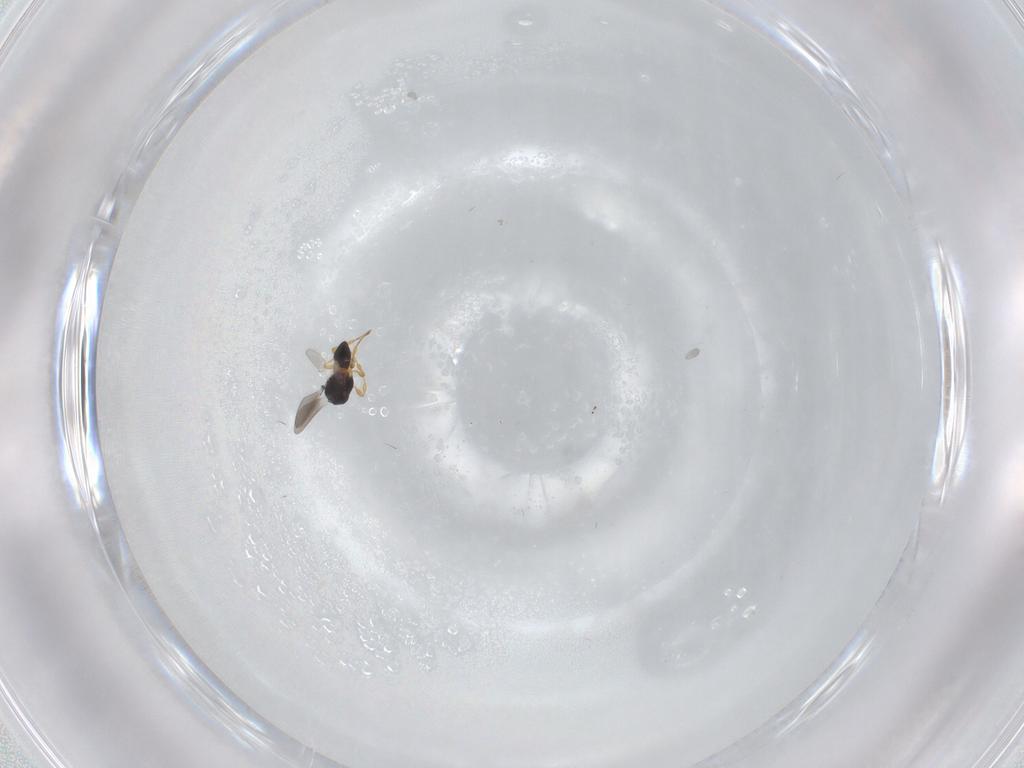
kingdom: Animalia
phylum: Arthropoda
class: Insecta
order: Hymenoptera
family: Platygastridae
